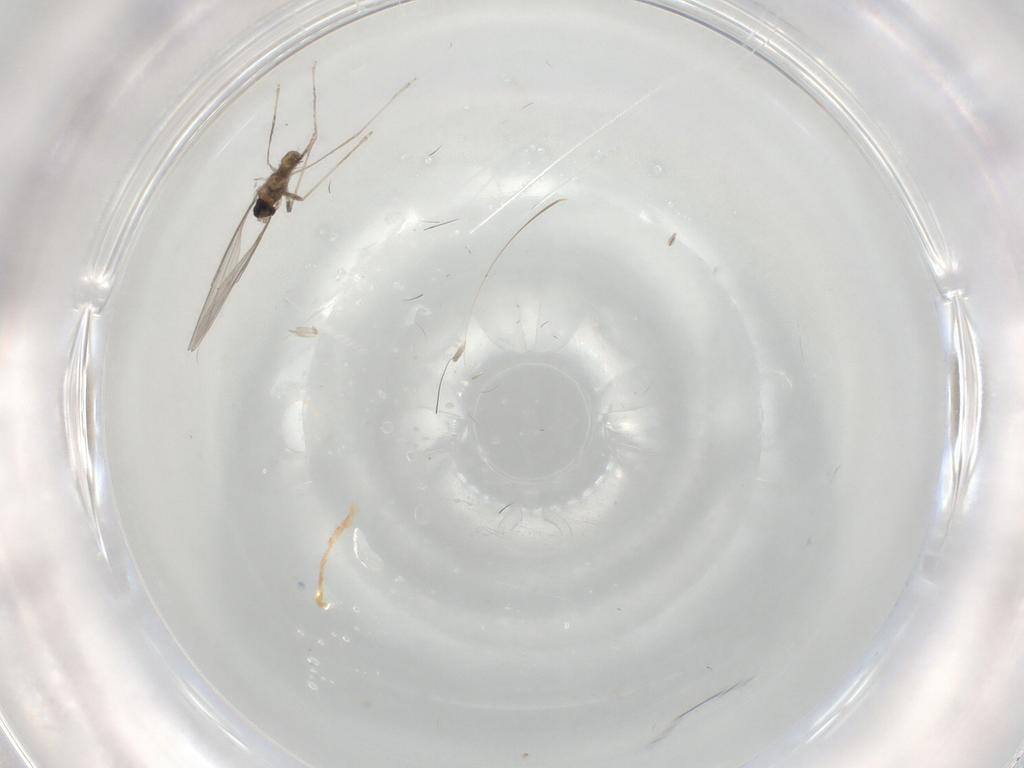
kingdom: Animalia
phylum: Arthropoda
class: Insecta
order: Diptera
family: Cecidomyiidae
